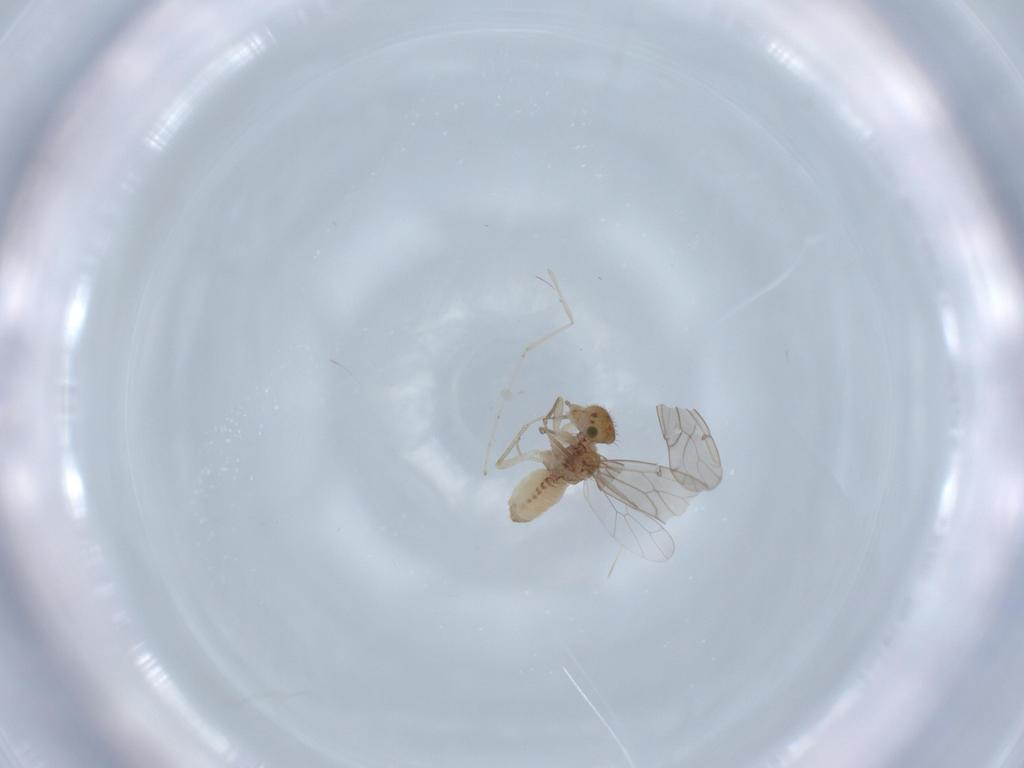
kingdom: Animalia
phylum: Arthropoda
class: Insecta
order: Psocodea
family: Ectopsocidae
